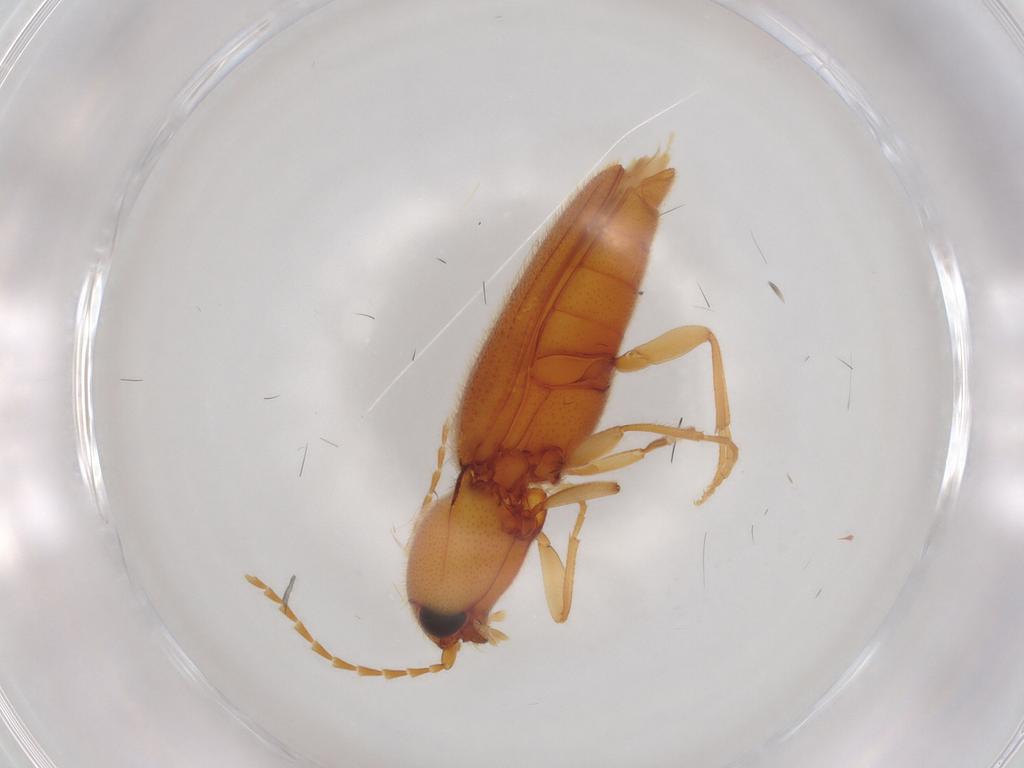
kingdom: Animalia
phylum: Arthropoda
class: Insecta
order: Coleoptera
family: Elateridae
